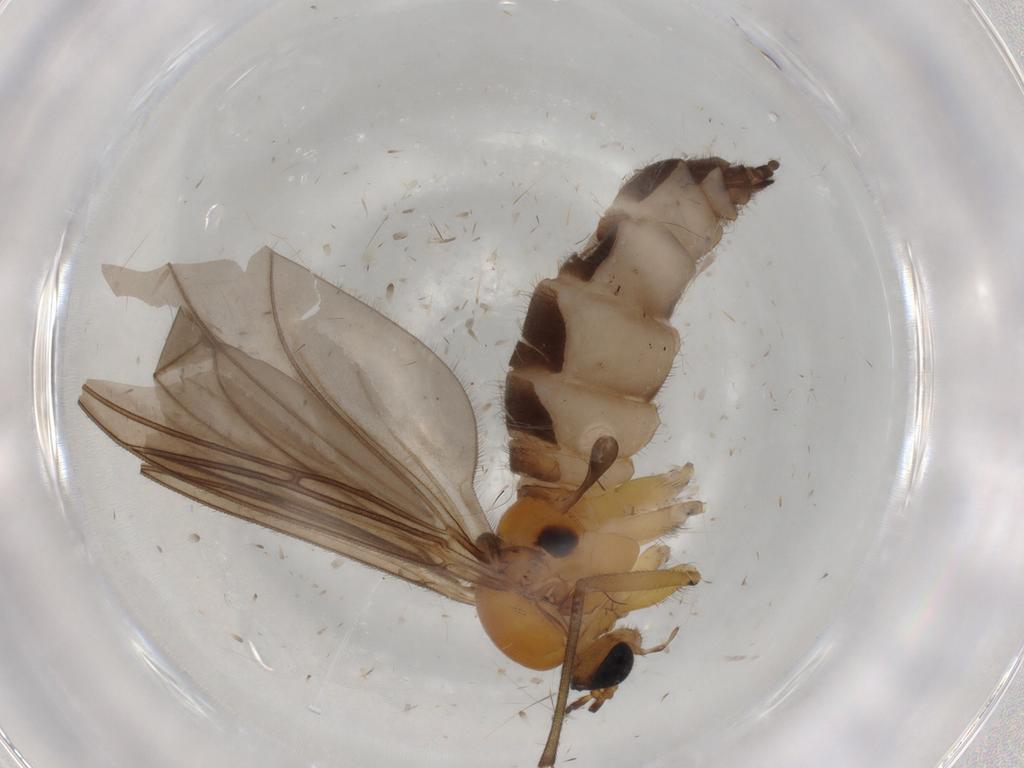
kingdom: Animalia
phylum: Arthropoda
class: Insecta
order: Diptera
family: Sciaridae
